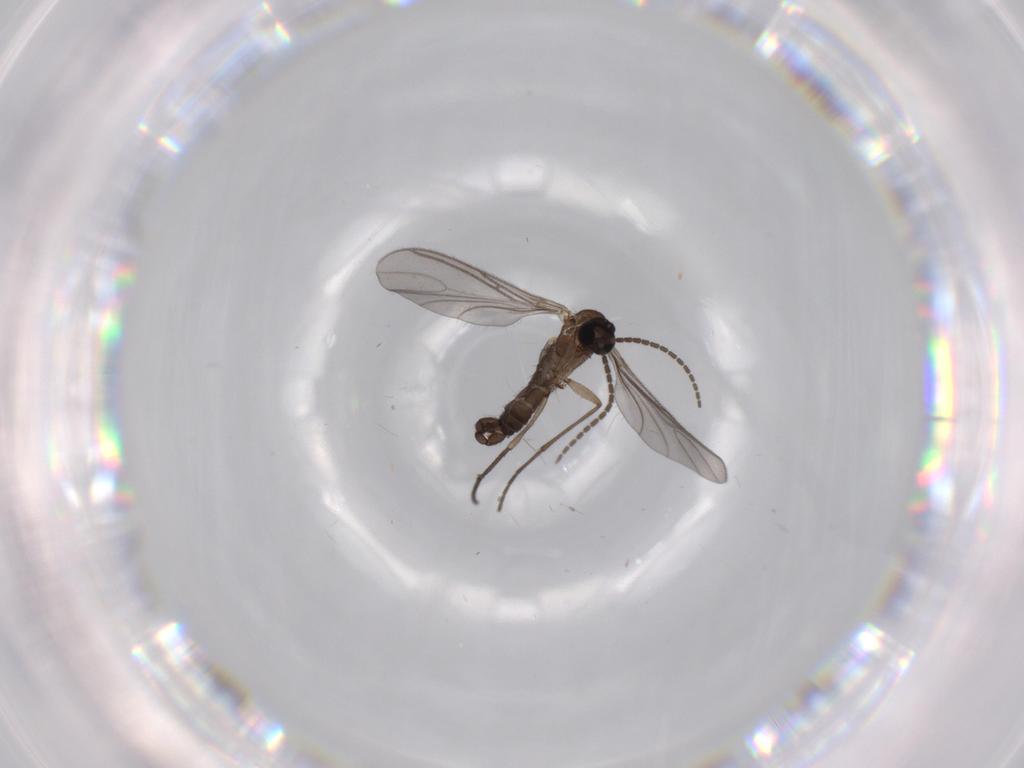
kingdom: Animalia
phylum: Arthropoda
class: Insecta
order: Diptera
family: Sciaridae
